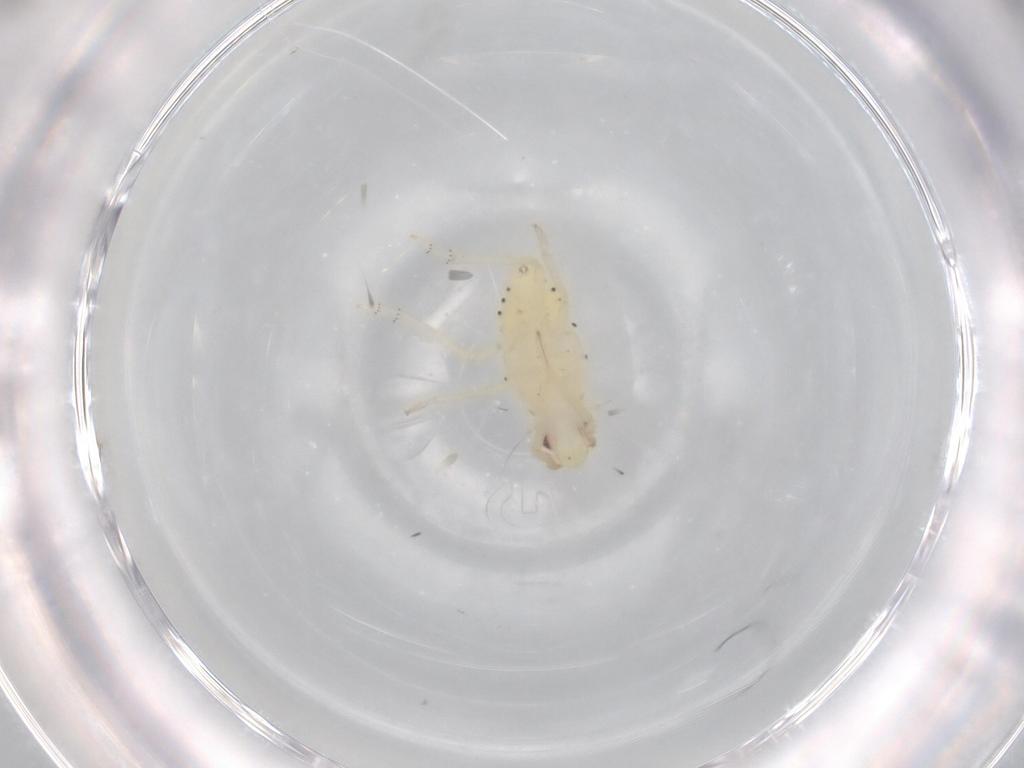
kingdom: Animalia
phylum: Arthropoda
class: Insecta
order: Hemiptera
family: Tropiduchidae
